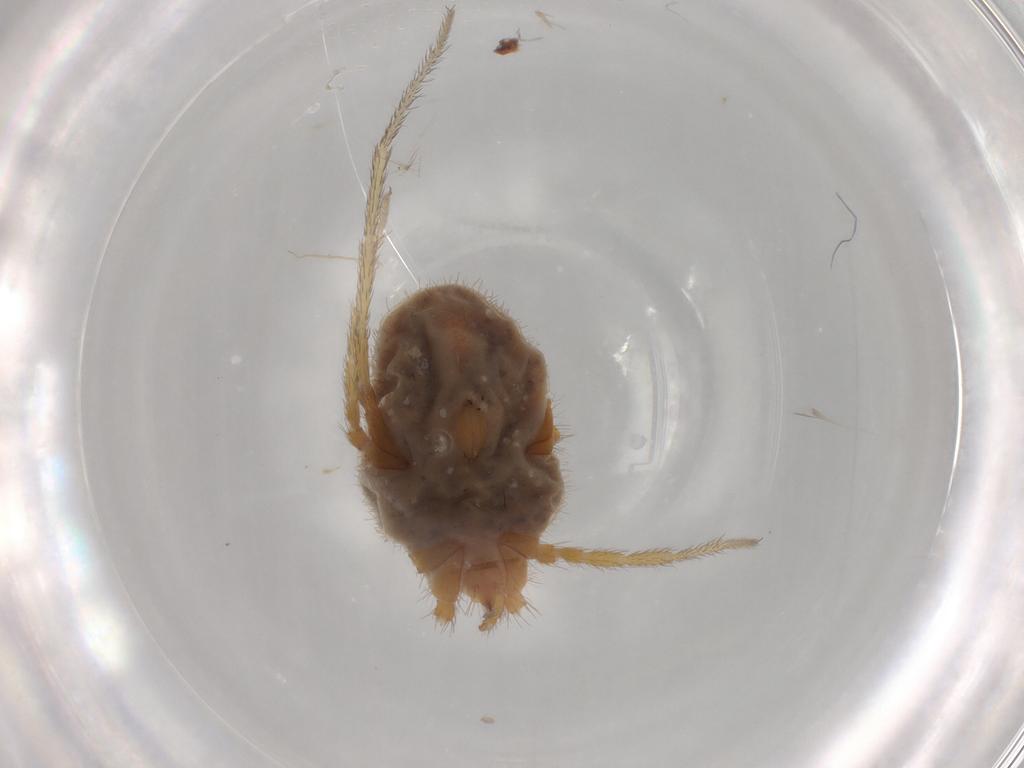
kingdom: Animalia
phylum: Arthropoda
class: Arachnida
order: Trombidiformes
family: Erythraeidae
